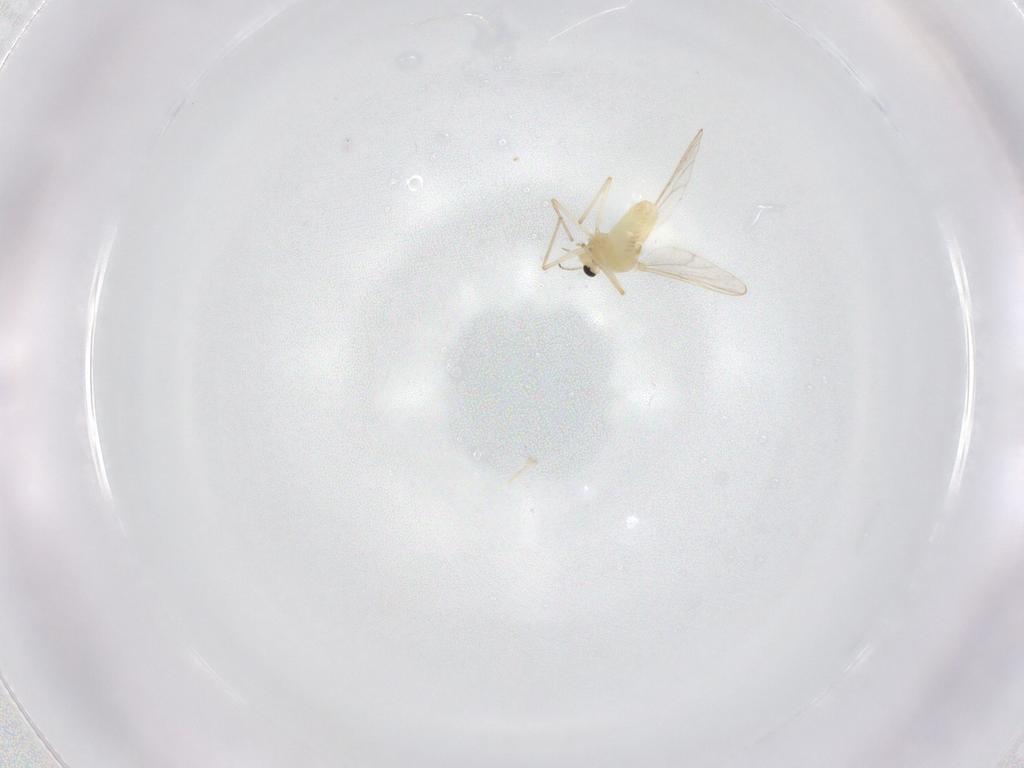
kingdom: Animalia
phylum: Arthropoda
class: Insecta
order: Diptera
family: Chironomidae
